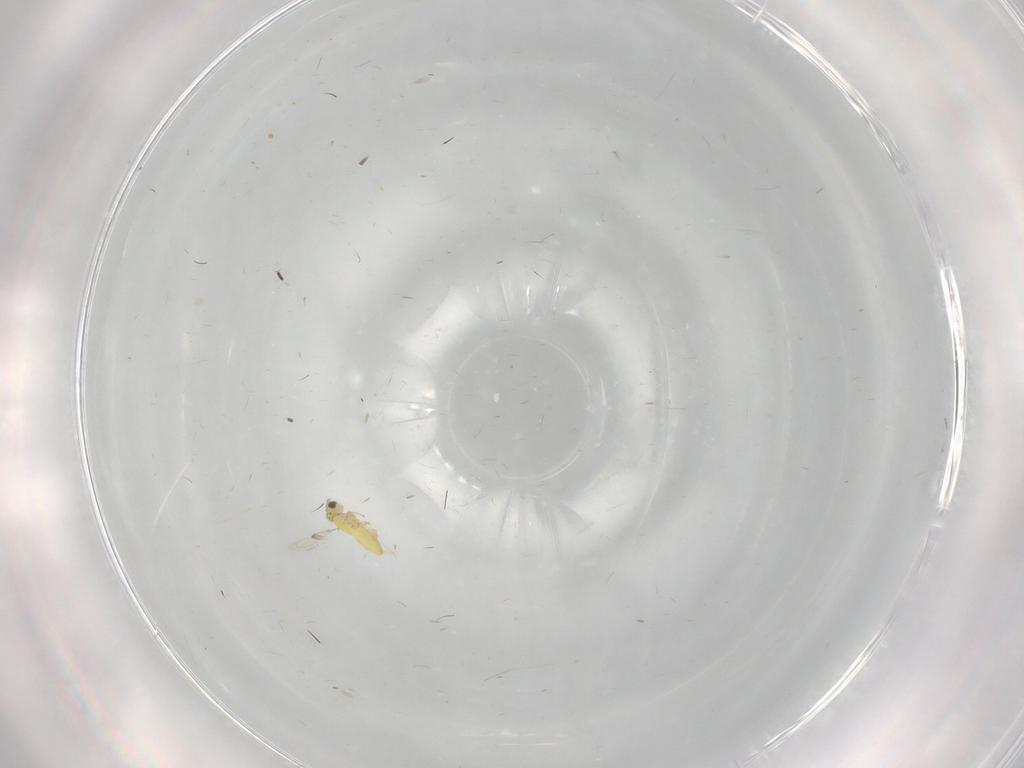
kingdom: Animalia
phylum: Arthropoda
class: Insecta
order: Hymenoptera
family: Trichogrammatidae
